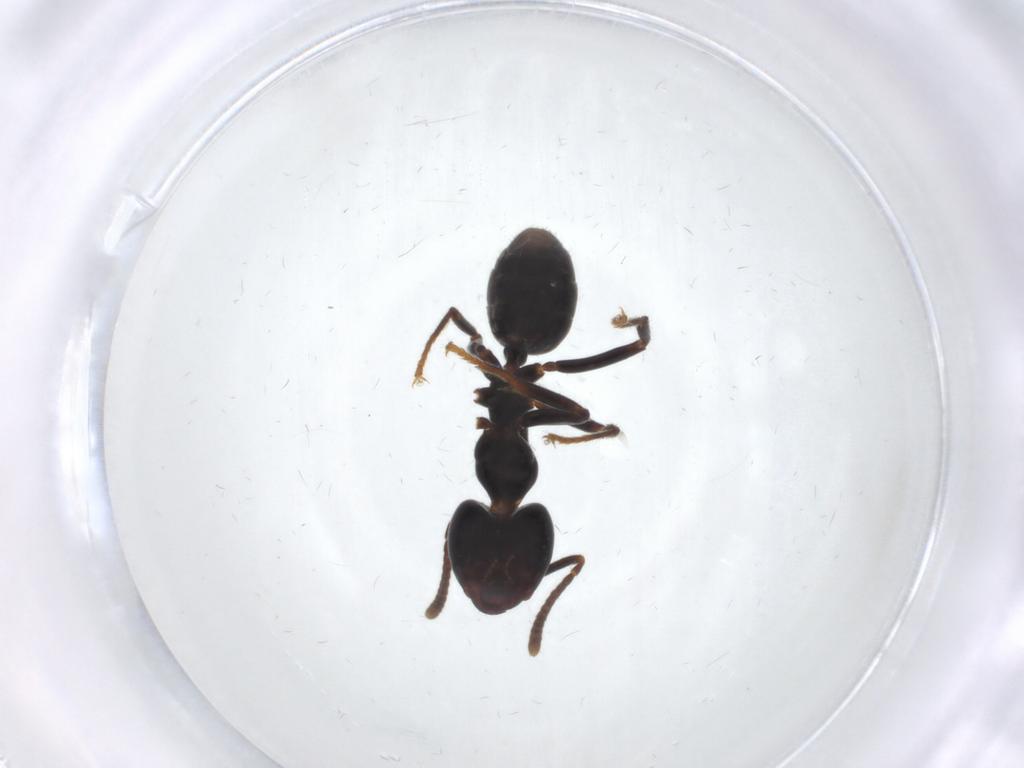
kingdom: Animalia
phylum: Arthropoda
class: Insecta
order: Hymenoptera
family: Formicidae
